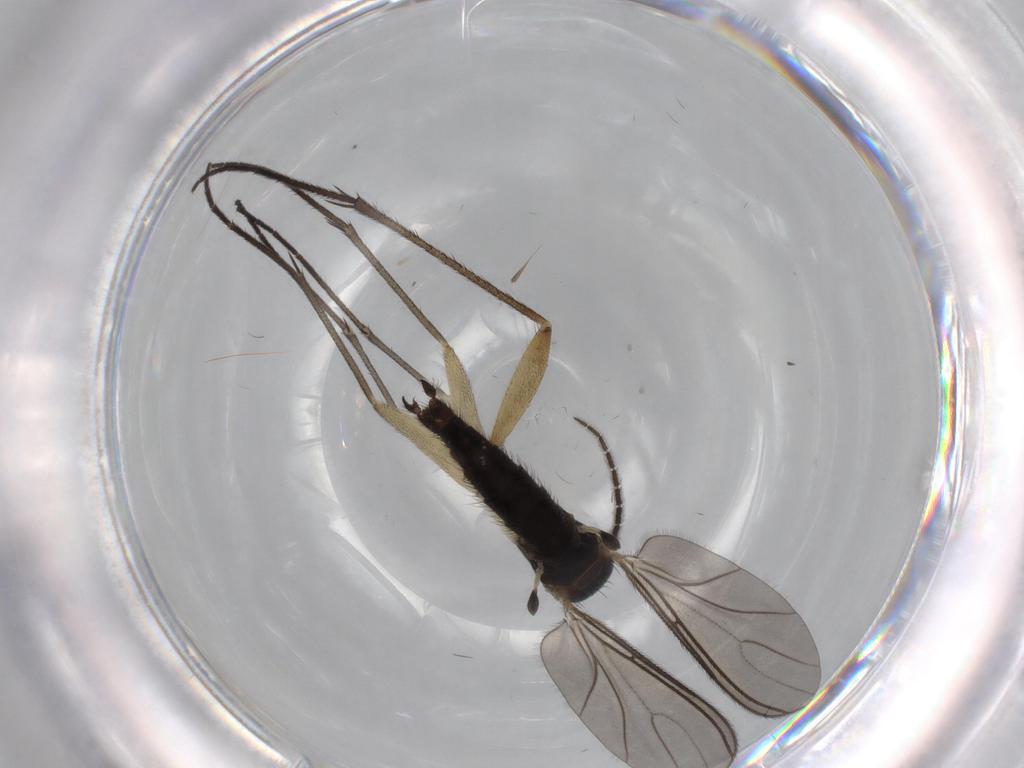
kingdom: Animalia
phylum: Arthropoda
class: Insecta
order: Diptera
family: Sciaridae
